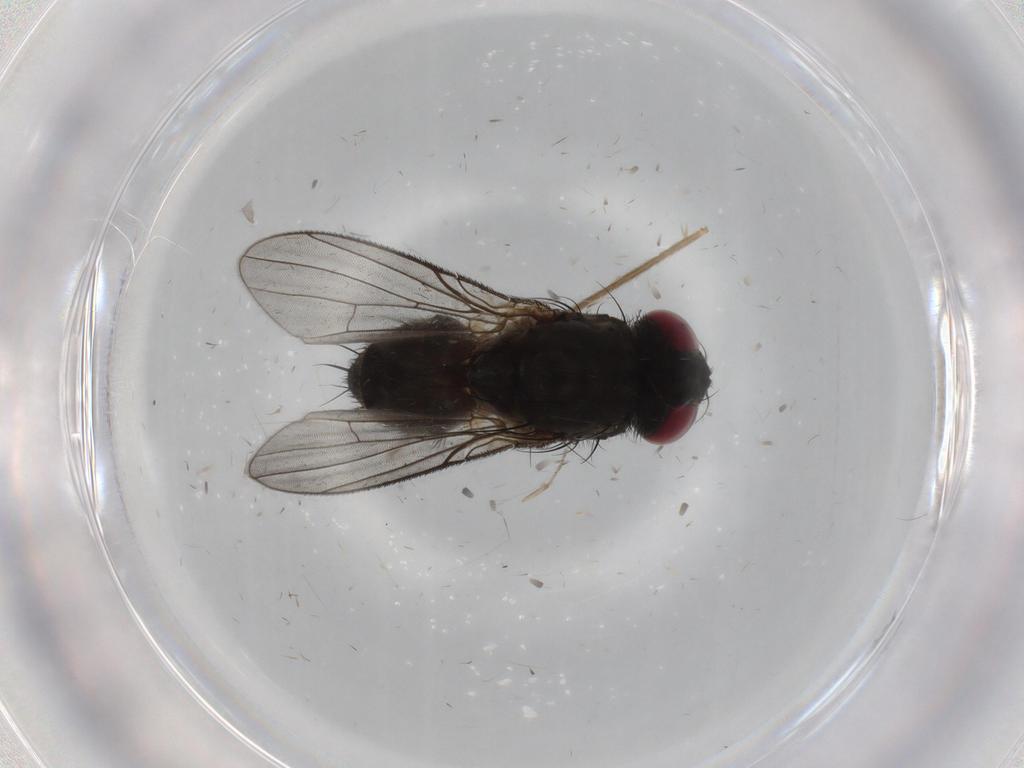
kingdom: Animalia
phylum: Arthropoda
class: Insecta
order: Diptera
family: Muscidae
